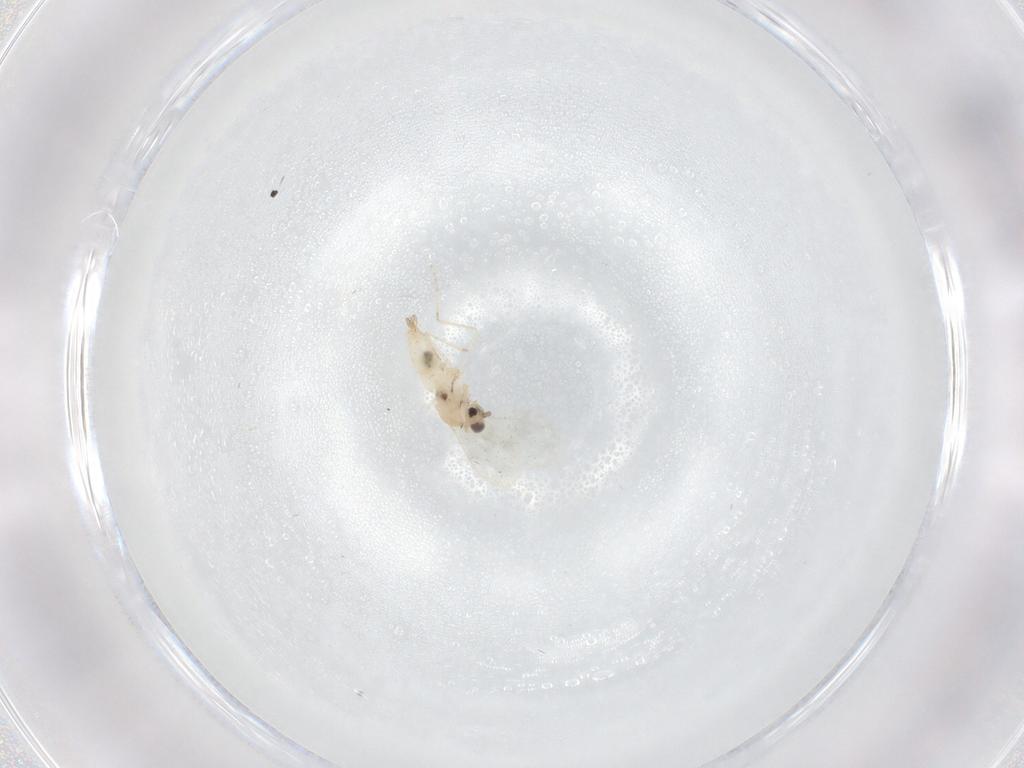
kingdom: Animalia
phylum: Arthropoda
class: Insecta
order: Diptera
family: Cecidomyiidae
